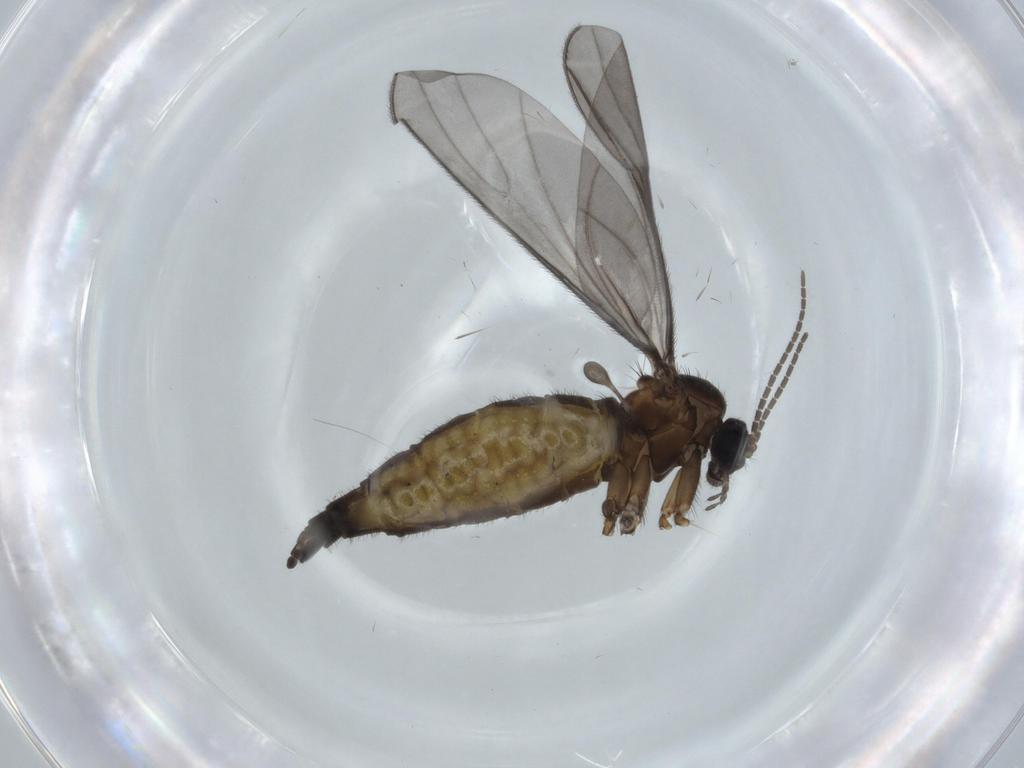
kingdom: Animalia
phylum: Arthropoda
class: Insecta
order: Diptera
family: Sciaridae
